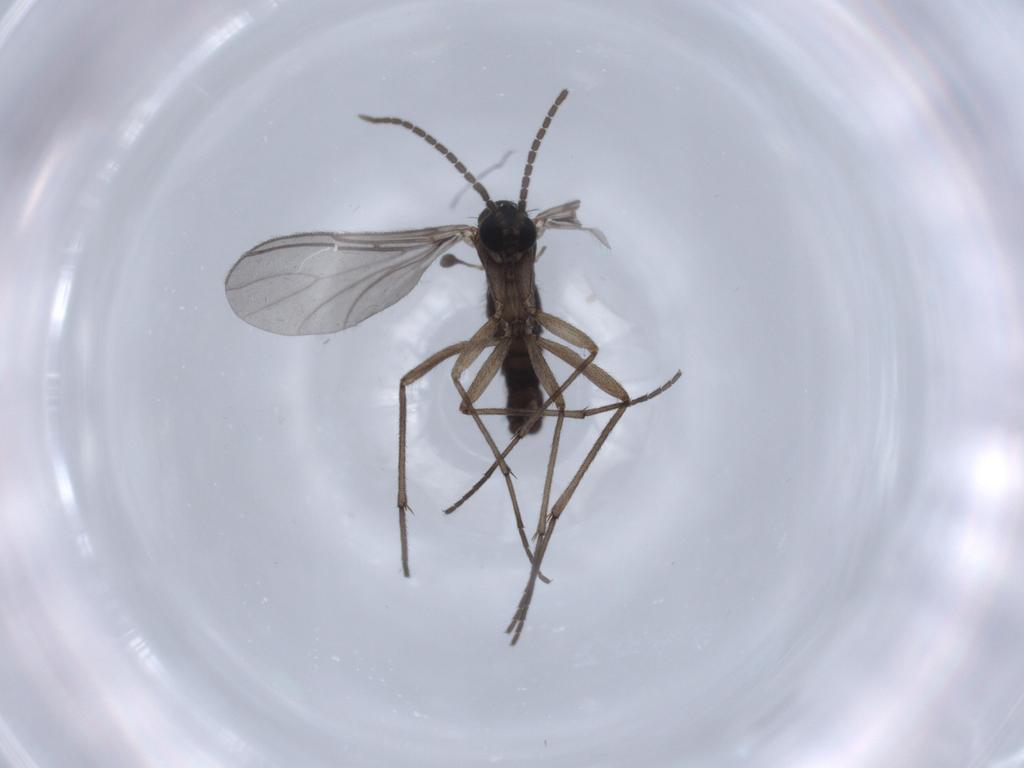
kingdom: Animalia
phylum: Arthropoda
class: Insecta
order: Diptera
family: Sciaridae
